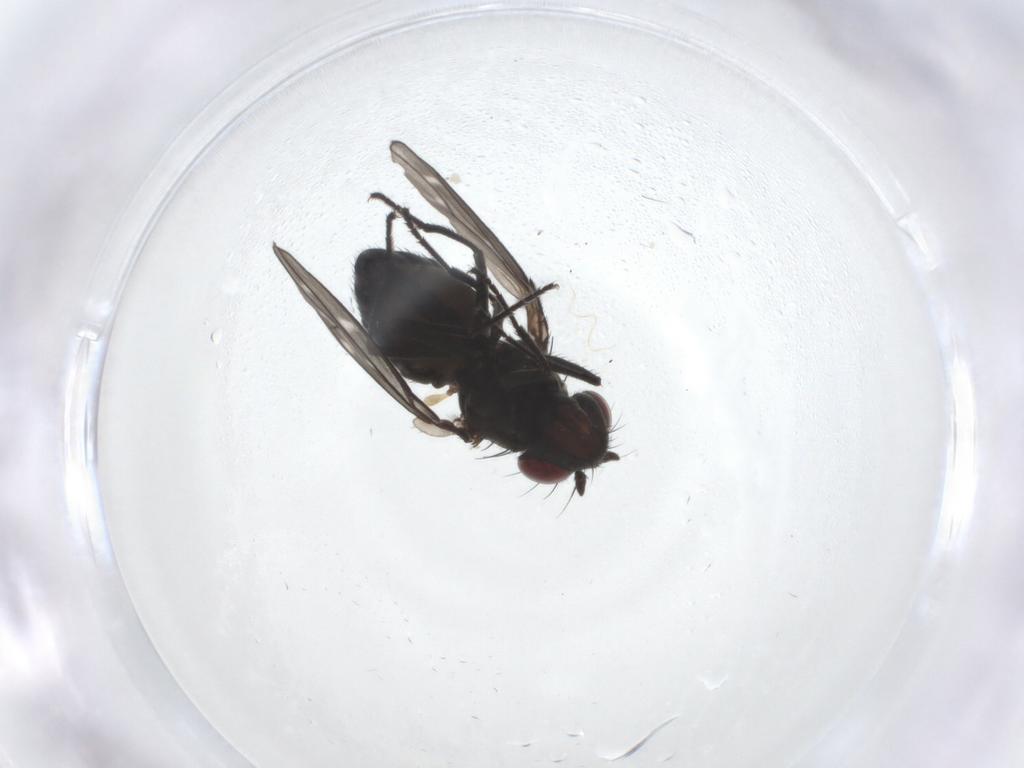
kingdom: Animalia
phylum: Arthropoda
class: Insecta
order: Diptera
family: Ephydridae
